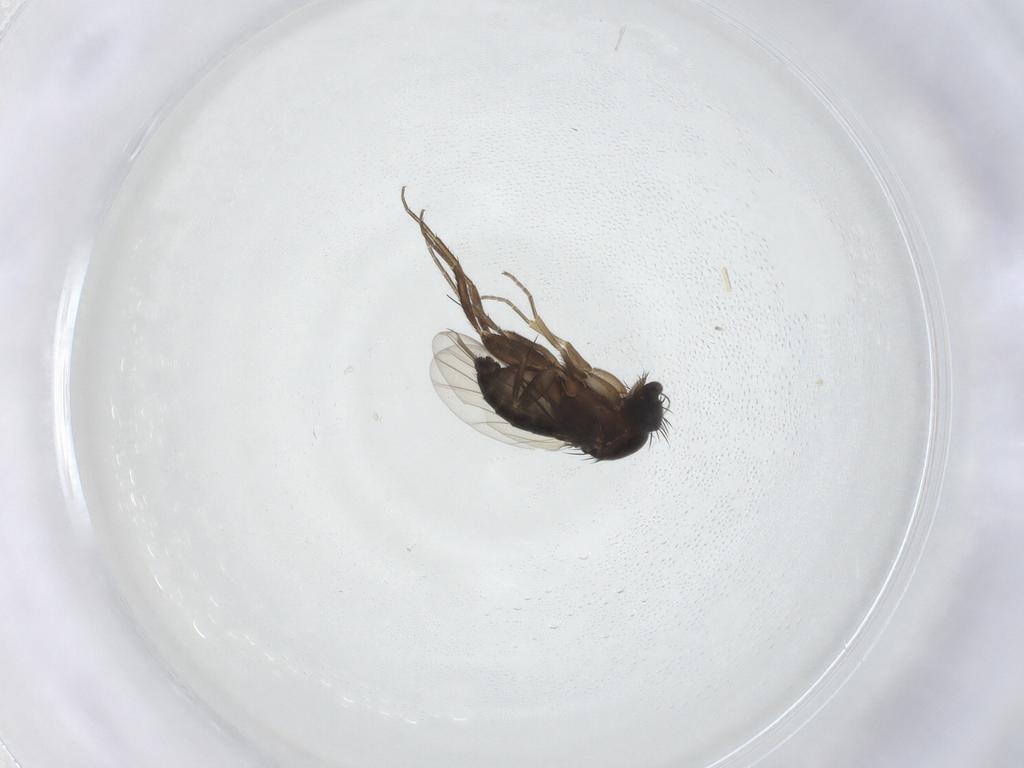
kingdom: Animalia
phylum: Arthropoda
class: Insecta
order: Diptera
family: Phoridae
